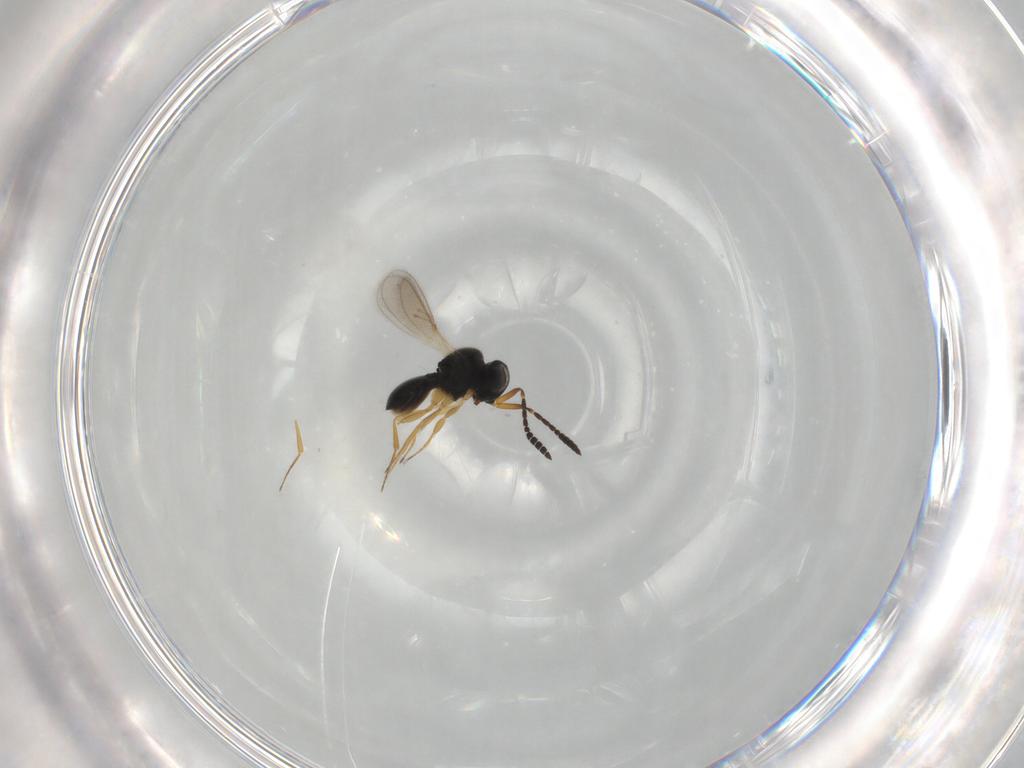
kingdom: Animalia
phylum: Arthropoda
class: Insecta
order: Hymenoptera
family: Scelionidae
